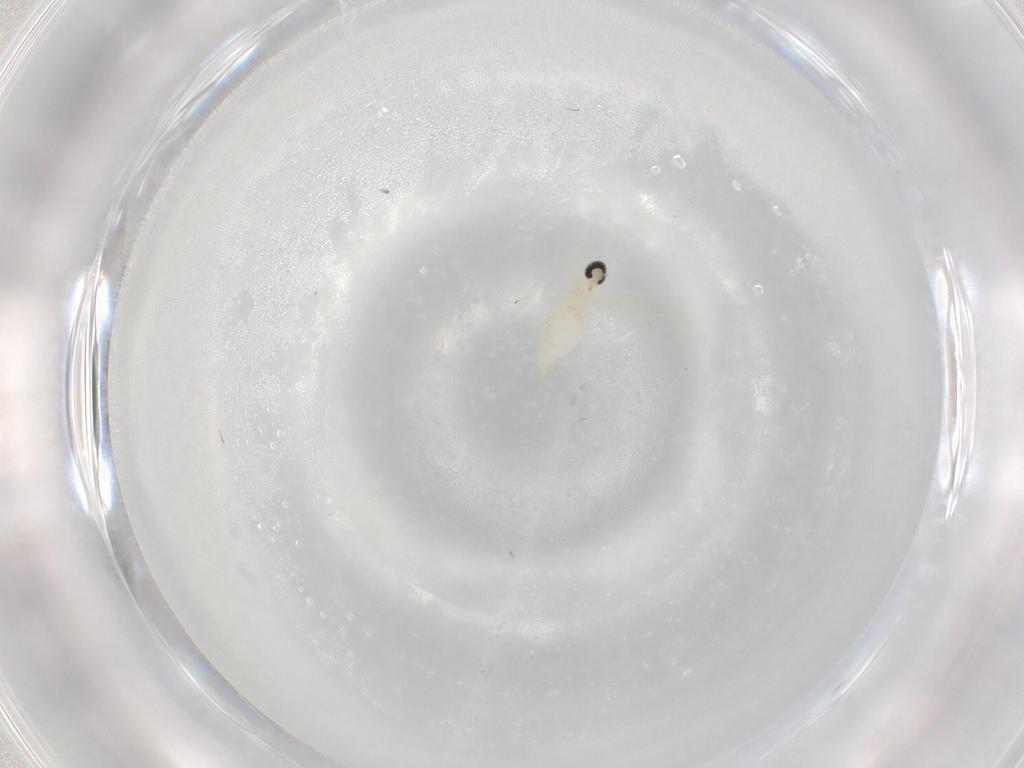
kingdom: Animalia
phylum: Arthropoda
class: Insecta
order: Diptera
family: Cecidomyiidae
